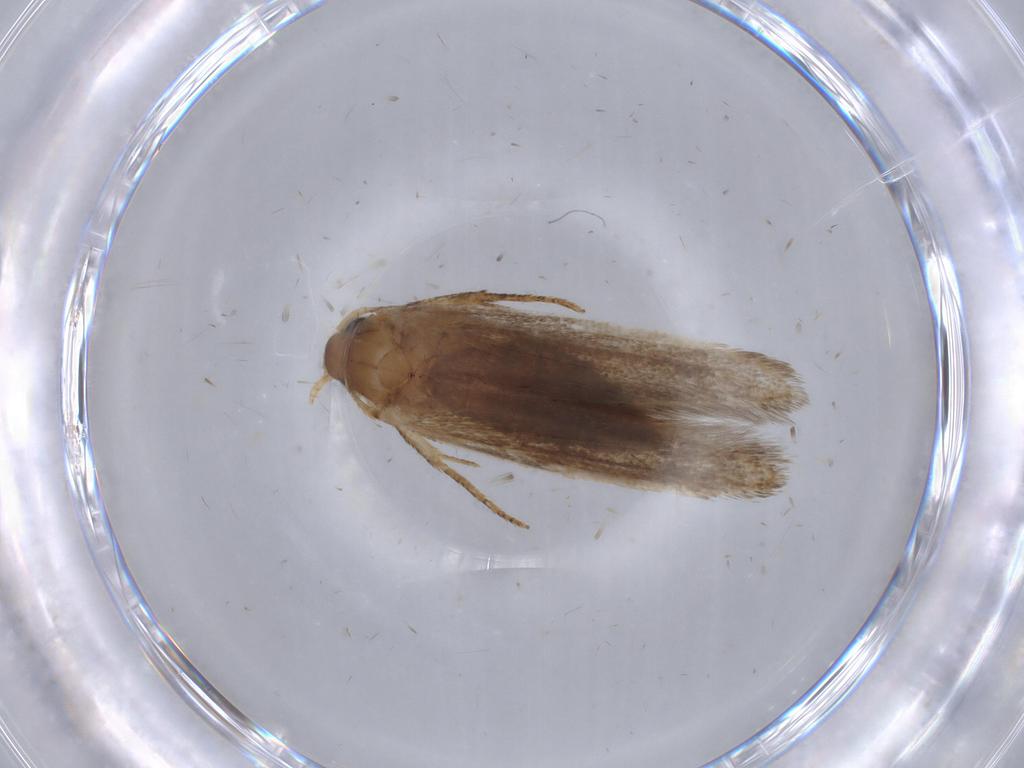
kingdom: Animalia
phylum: Arthropoda
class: Insecta
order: Lepidoptera
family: Blastobasidae
